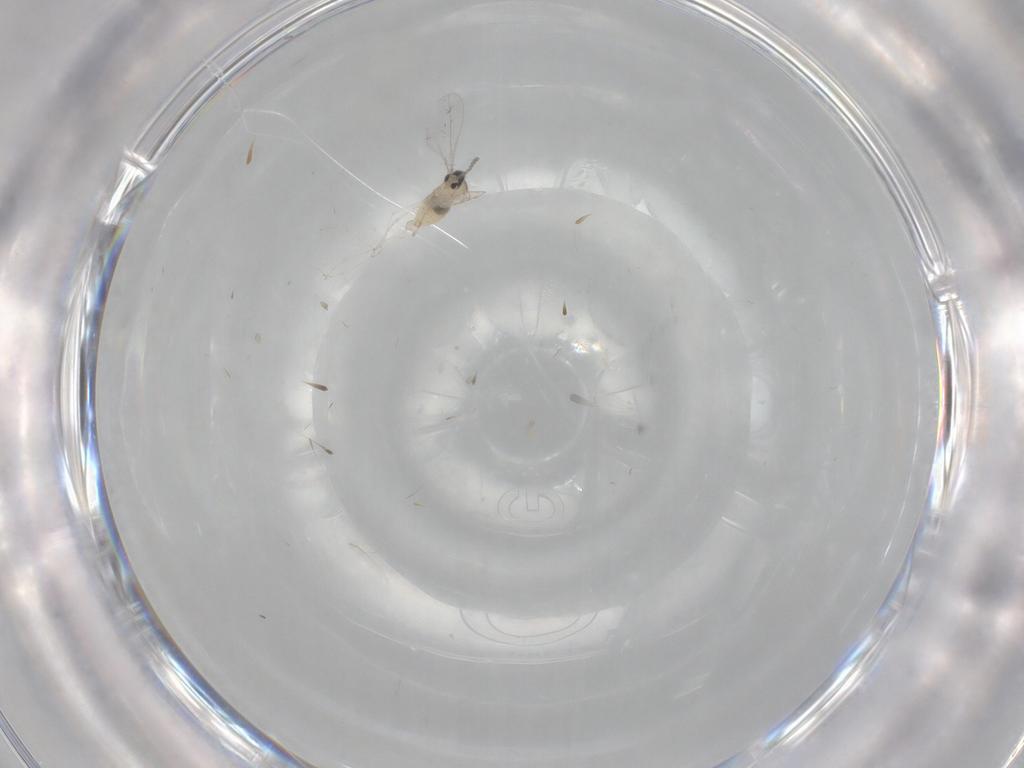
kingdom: Animalia
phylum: Arthropoda
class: Insecta
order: Diptera
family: Cecidomyiidae
